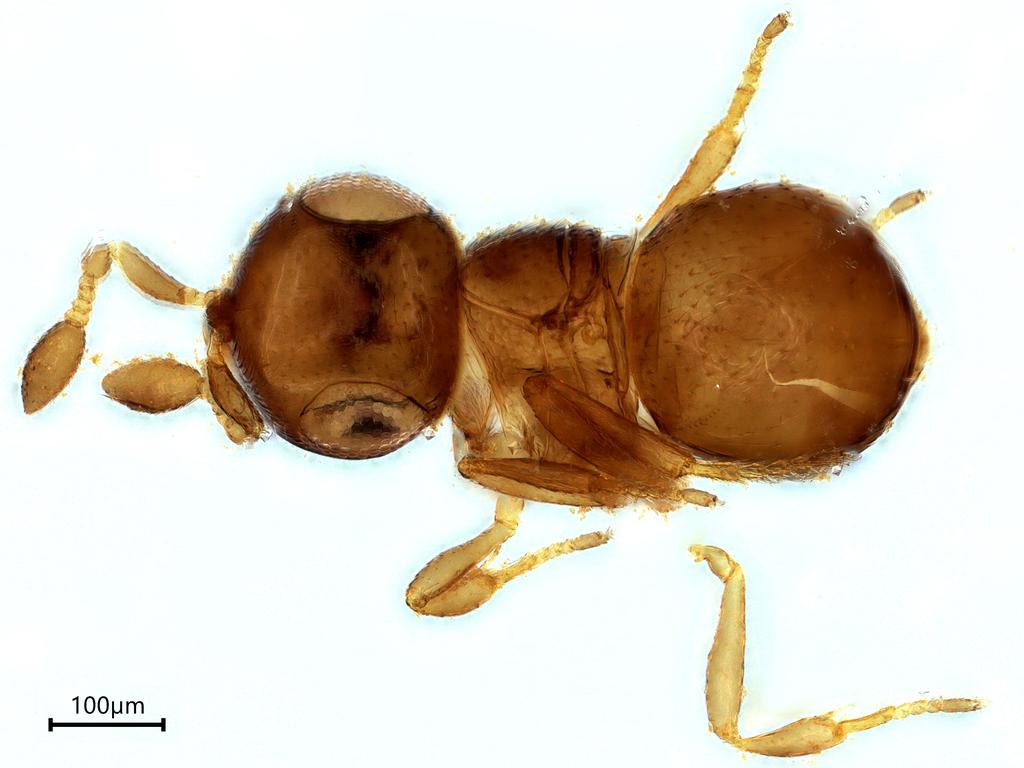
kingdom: Animalia
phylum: Arthropoda
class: Insecta
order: Hymenoptera
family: Scelionidae
